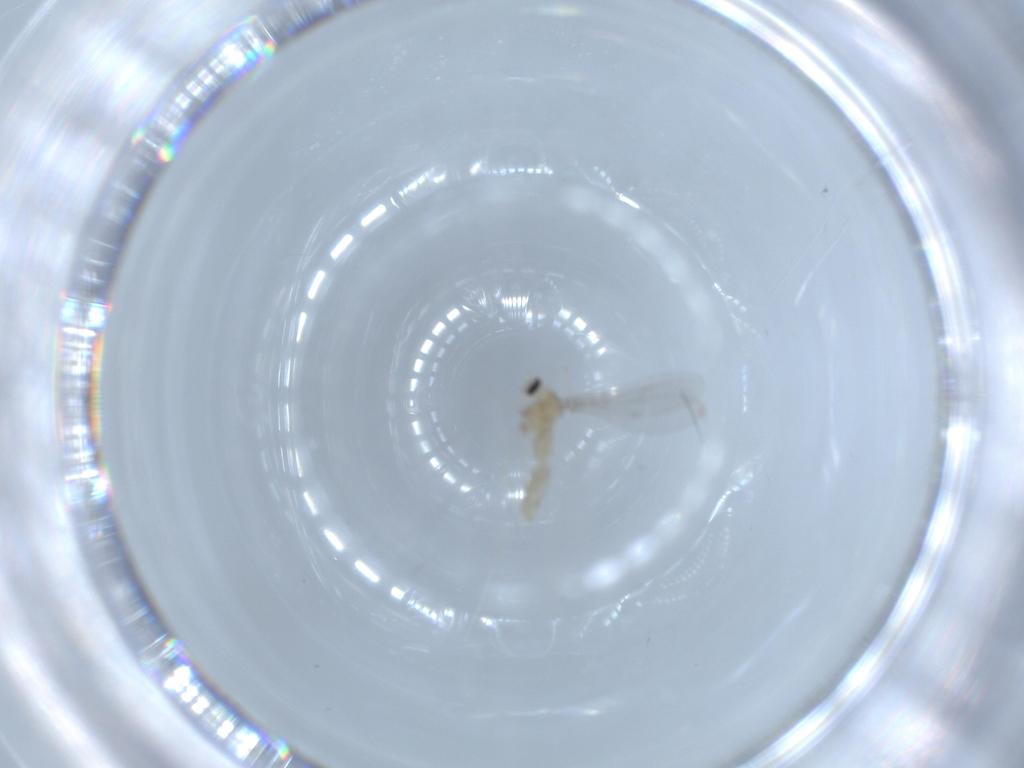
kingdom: Animalia
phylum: Arthropoda
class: Insecta
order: Diptera
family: Cecidomyiidae
